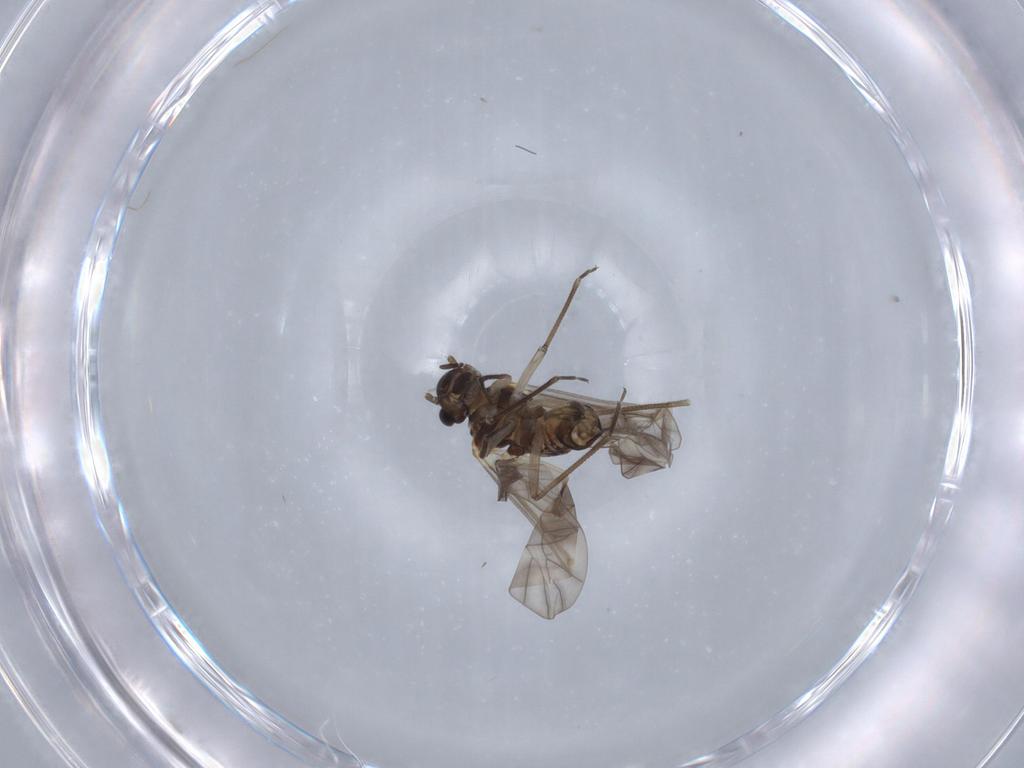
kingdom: Animalia
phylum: Arthropoda
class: Insecta
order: Psocodea
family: Peripsocidae
